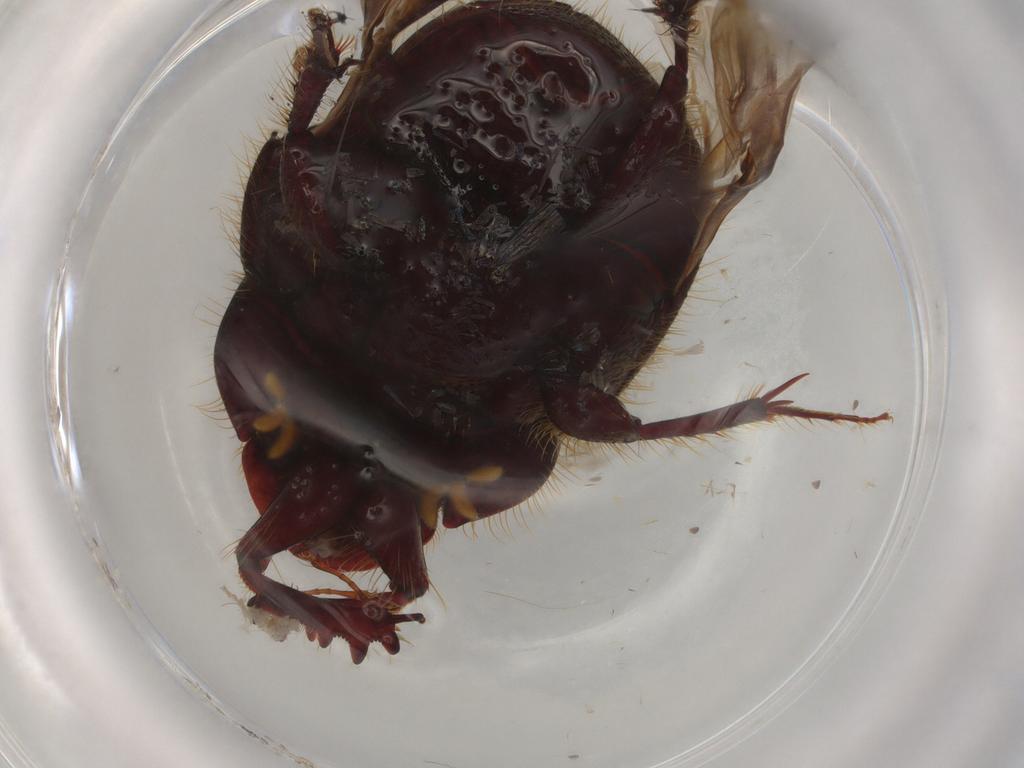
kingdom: Animalia
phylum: Arthropoda
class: Insecta
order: Coleoptera
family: Scarabaeidae
